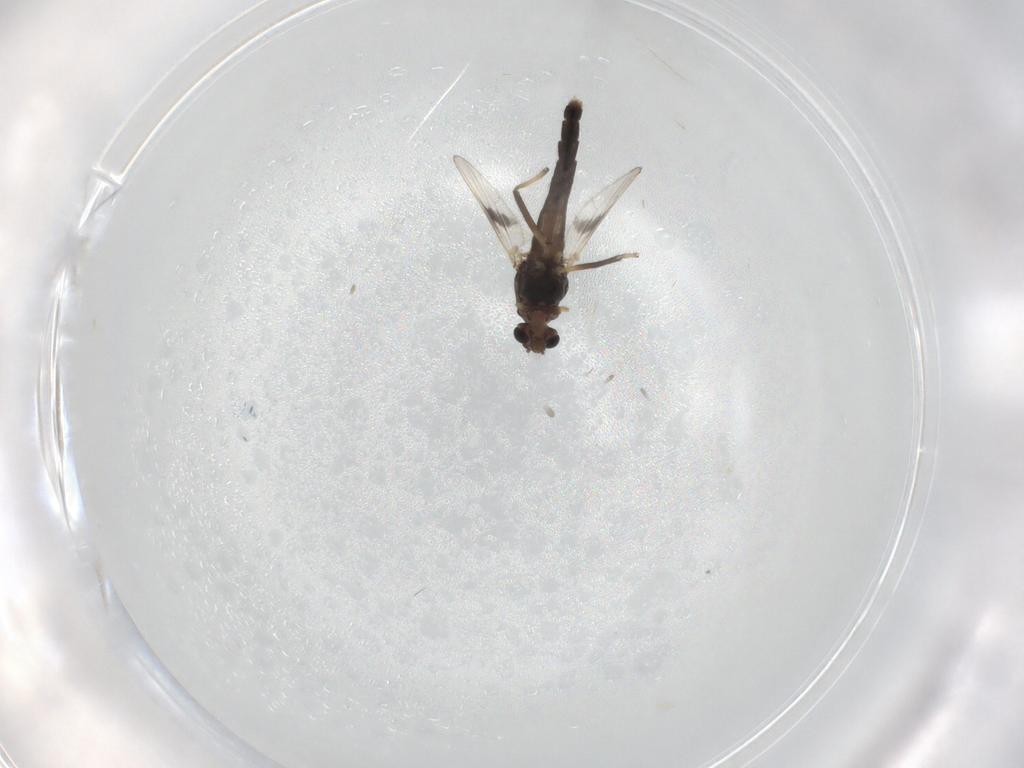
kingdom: Animalia
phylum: Arthropoda
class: Insecta
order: Diptera
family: Chironomidae
